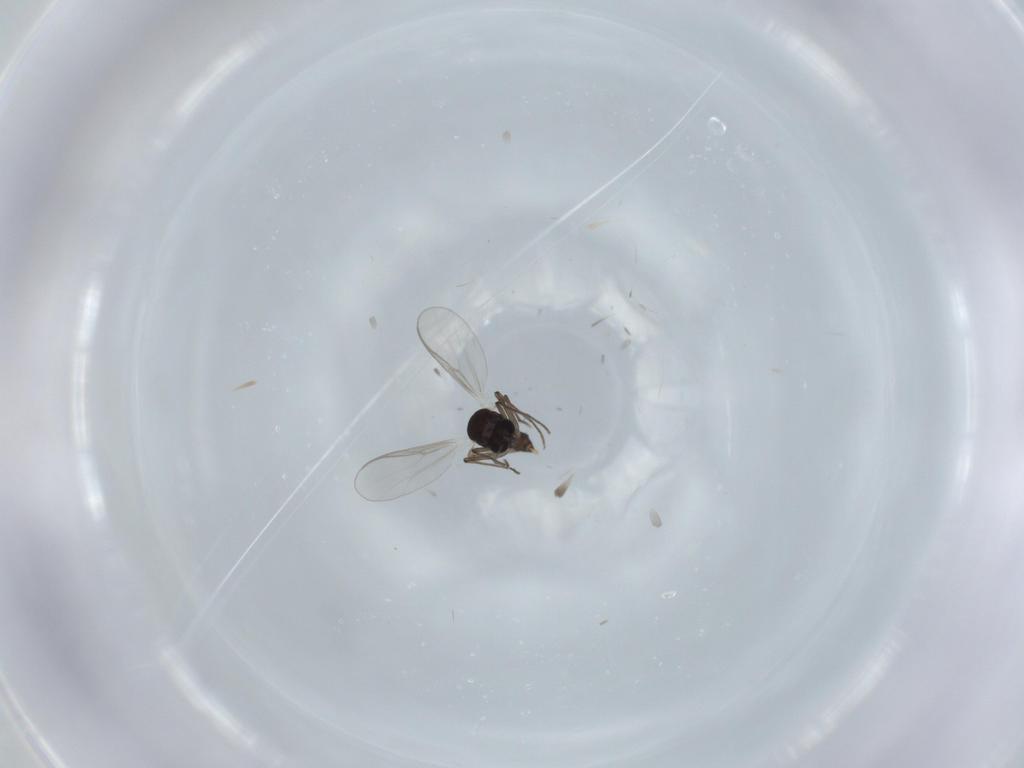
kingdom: Animalia
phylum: Arthropoda
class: Insecta
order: Diptera
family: Chironomidae
